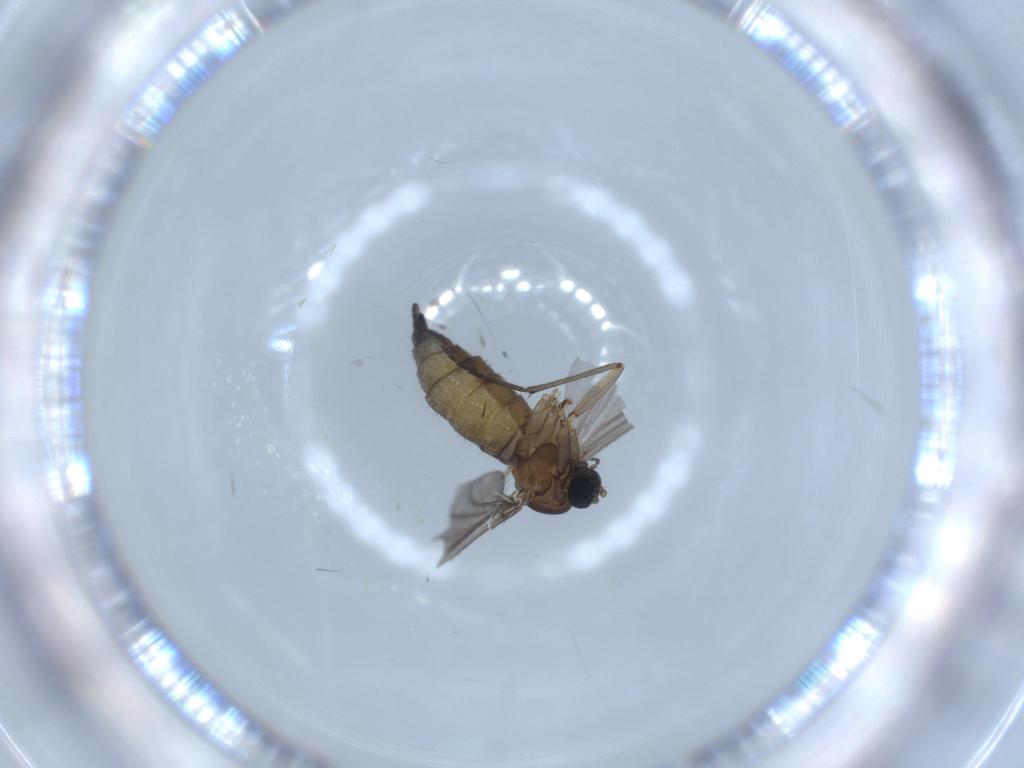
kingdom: Animalia
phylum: Arthropoda
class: Insecta
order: Diptera
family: Sciaridae
